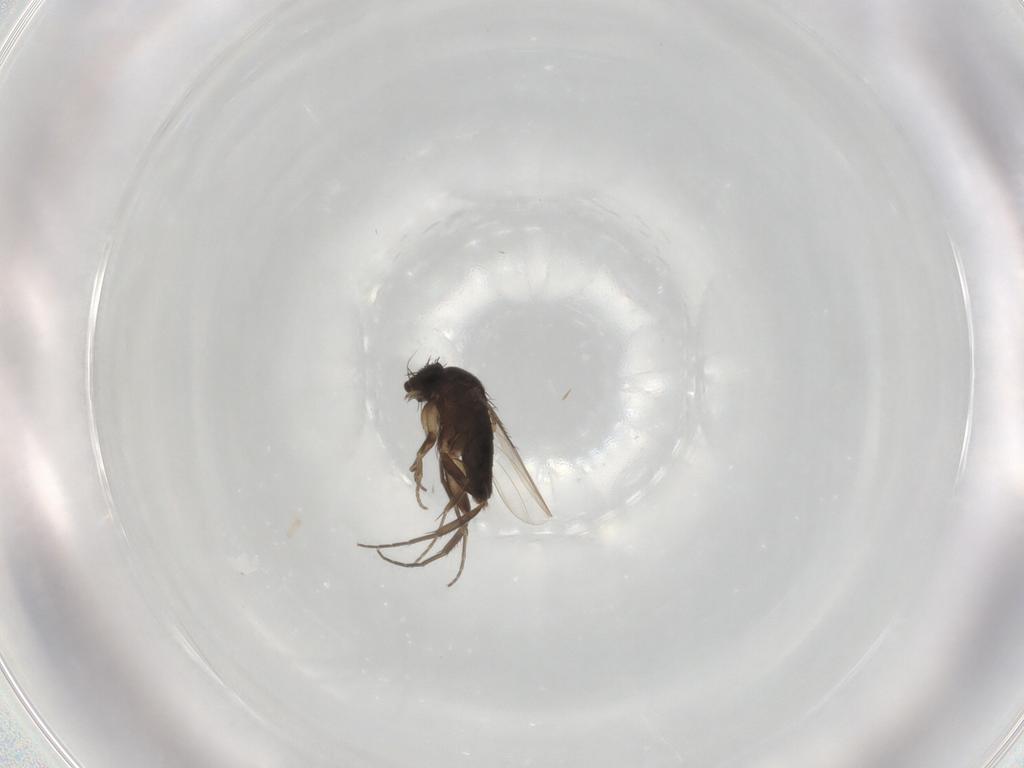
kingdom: Animalia
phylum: Arthropoda
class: Insecta
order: Diptera
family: Phoridae
